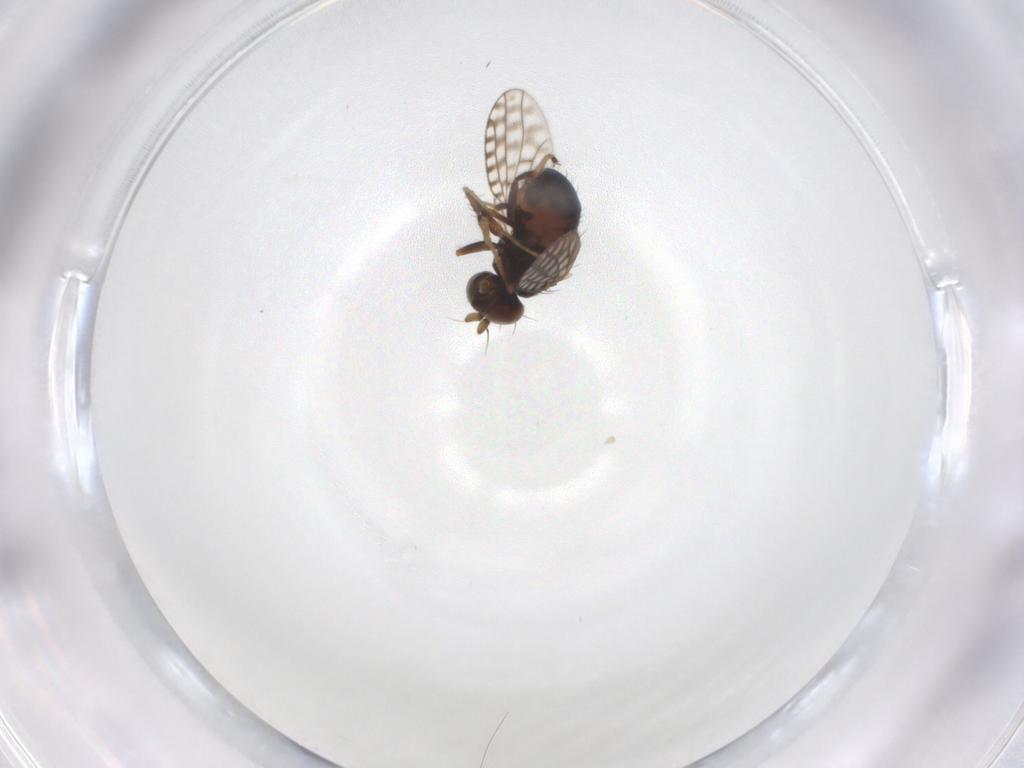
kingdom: Animalia
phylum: Arthropoda
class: Insecta
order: Diptera
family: Ephydridae
